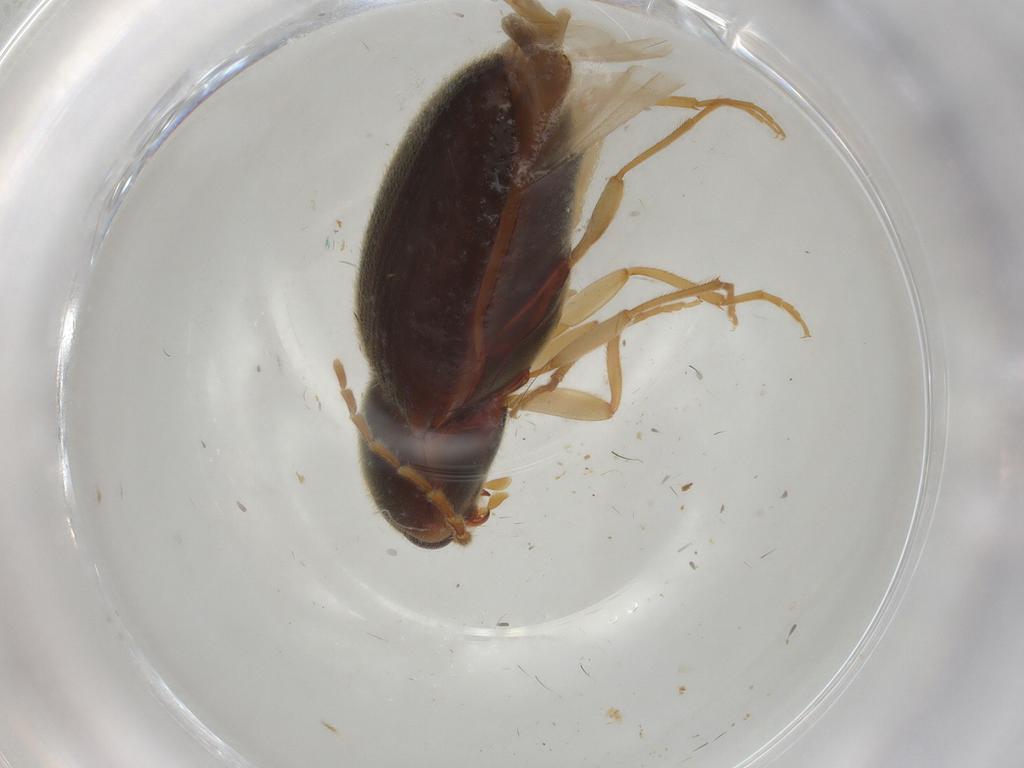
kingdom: Animalia
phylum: Arthropoda
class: Insecta
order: Coleoptera
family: Elateridae
